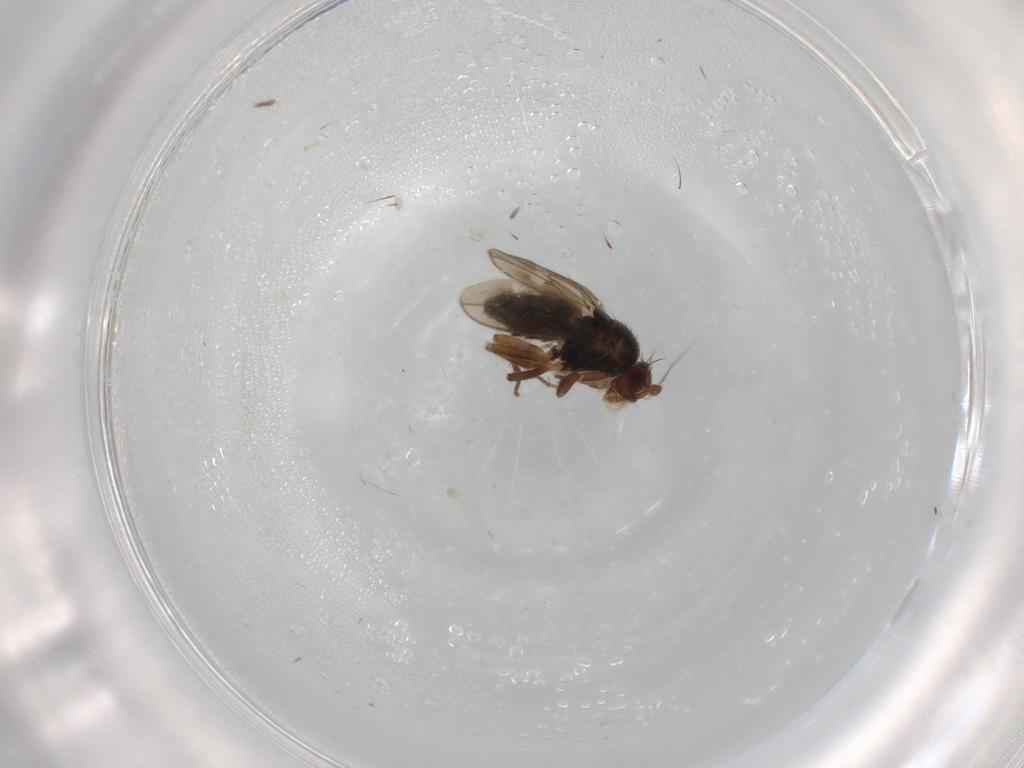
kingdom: Animalia
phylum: Arthropoda
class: Insecta
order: Diptera
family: Sphaeroceridae
